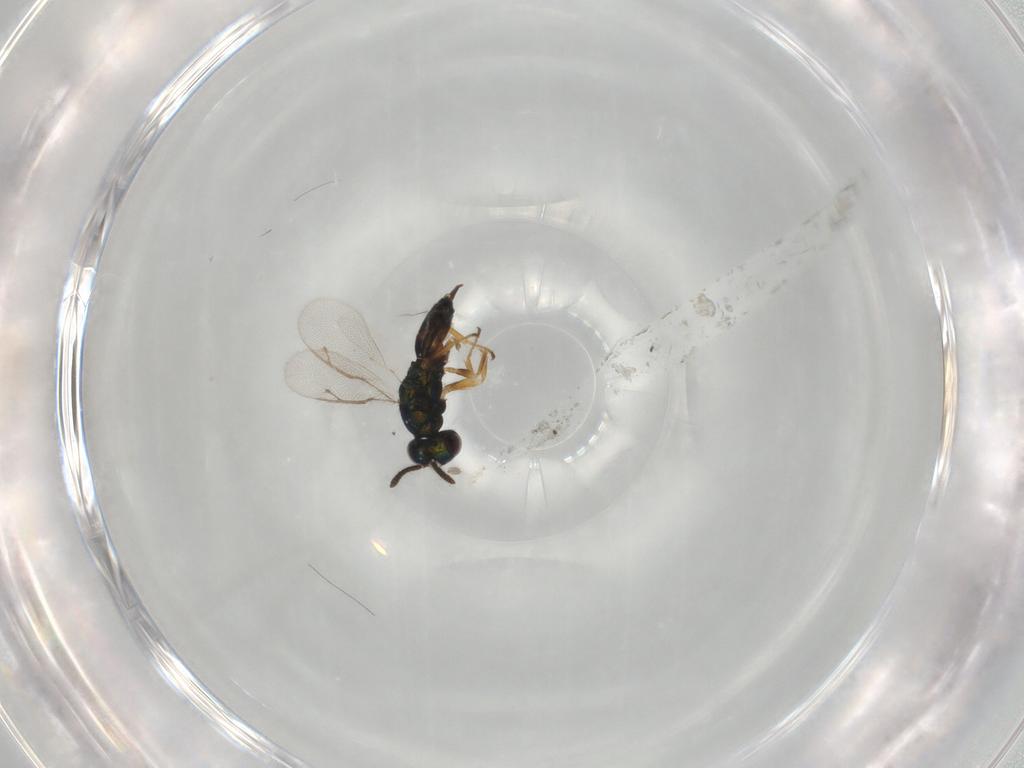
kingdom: Animalia
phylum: Arthropoda
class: Insecta
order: Hymenoptera
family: Pteromalidae
